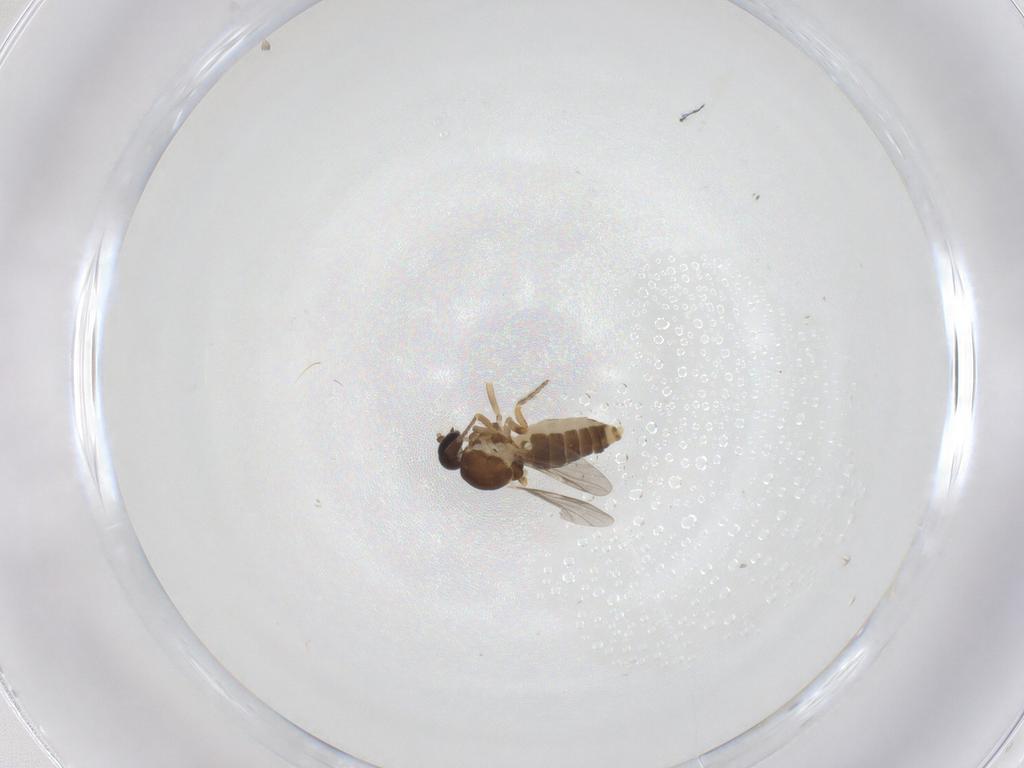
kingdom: Animalia
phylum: Arthropoda
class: Insecta
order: Diptera
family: Ceratopogonidae
